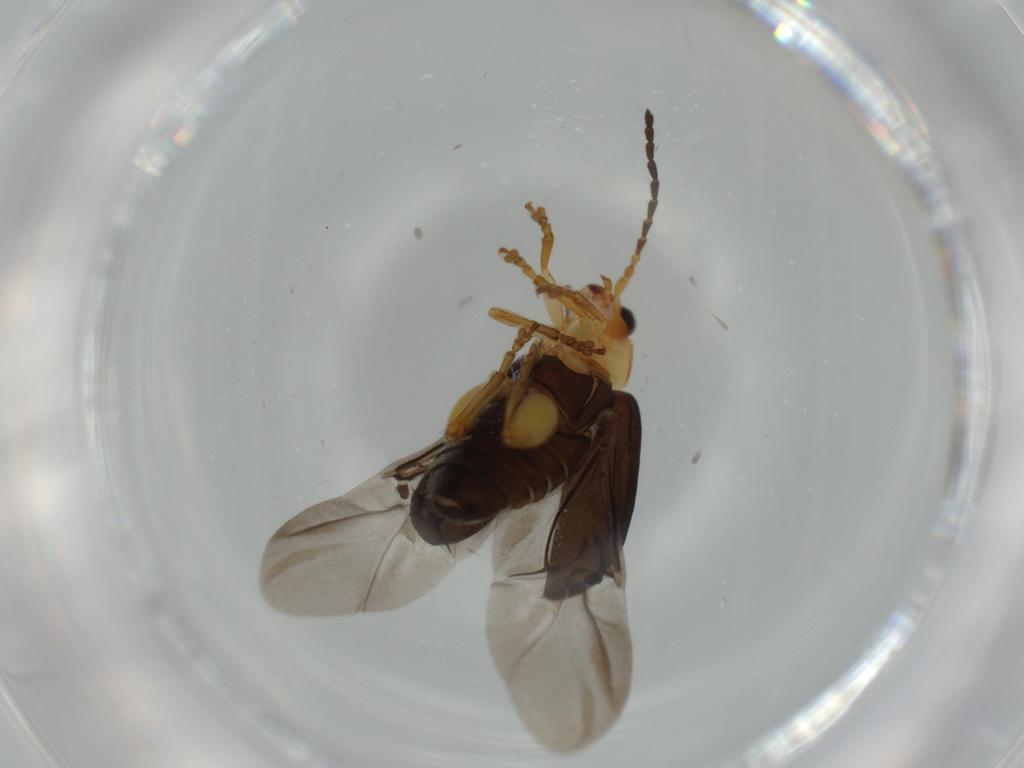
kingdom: Animalia
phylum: Arthropoda
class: Insecta
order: Coleoptera
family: Chrysomelidae
